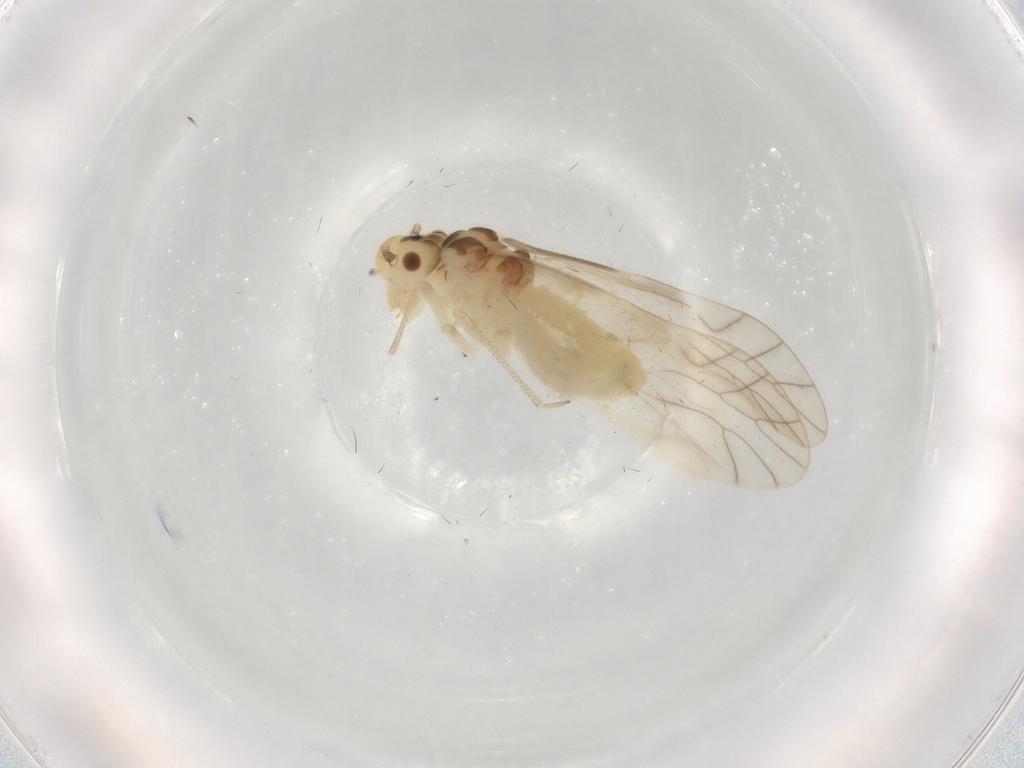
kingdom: Animalia
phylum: Arthropoda
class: Insecta
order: Psocodea
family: Caeciliusidae
